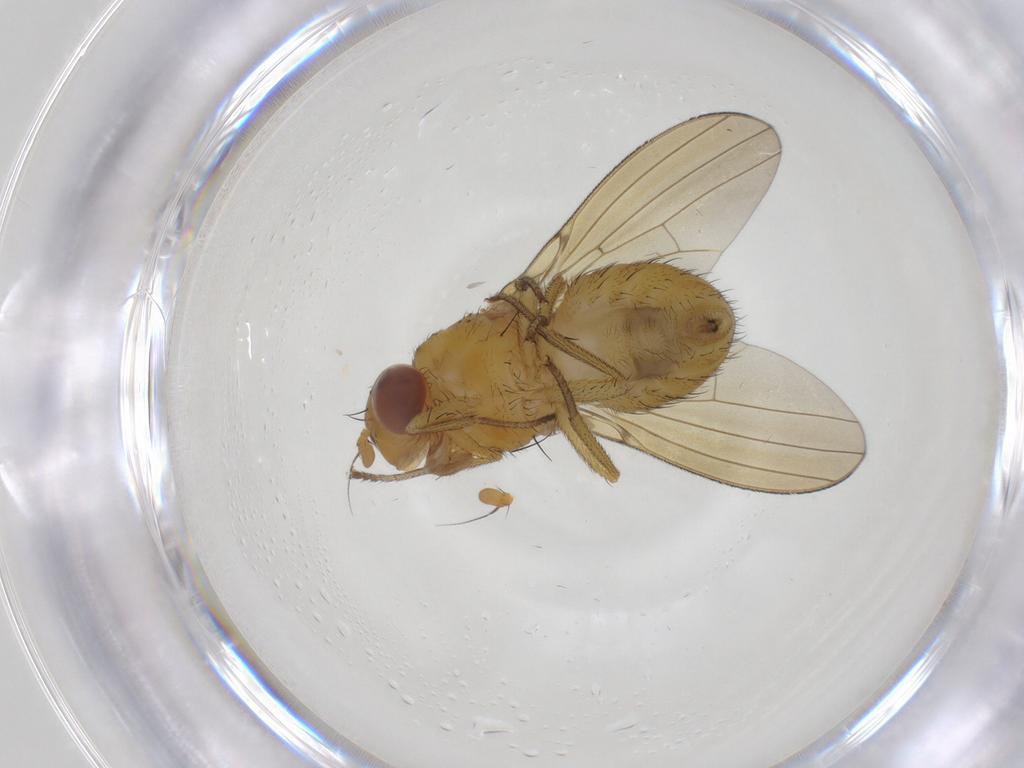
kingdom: Animalia
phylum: Arthropoda
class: Insecta
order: Diptera
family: Lauxaniidae
